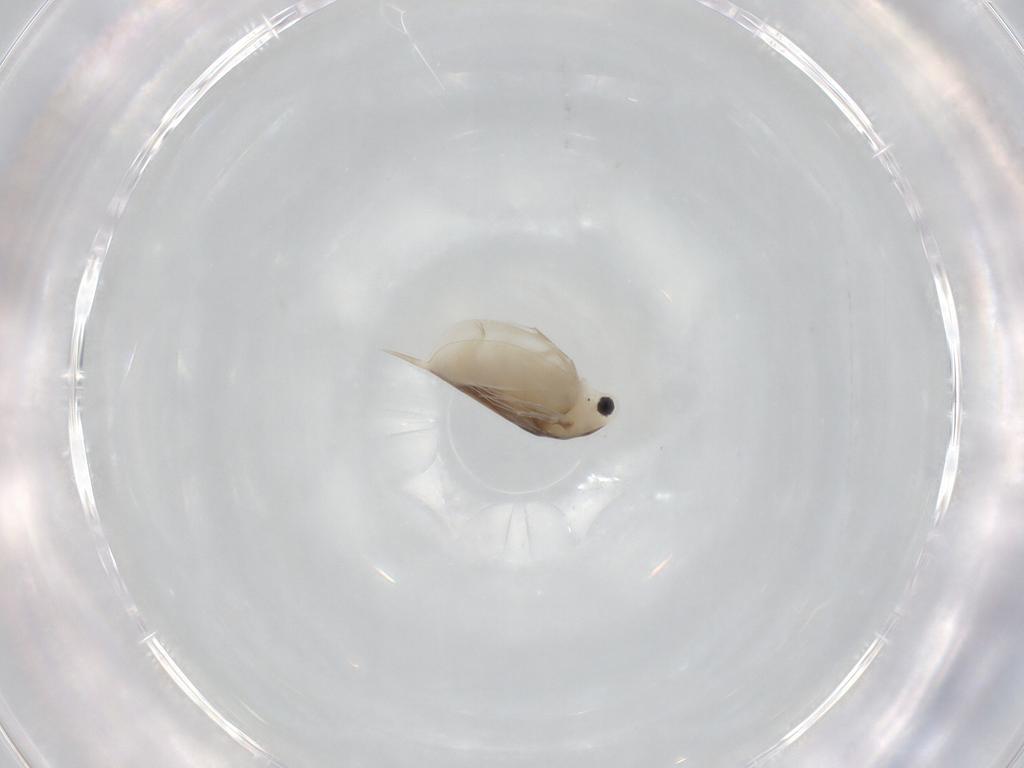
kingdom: Animalia
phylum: Arthropoda
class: Branchiopoda
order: Diplostraca
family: Daphniidae
